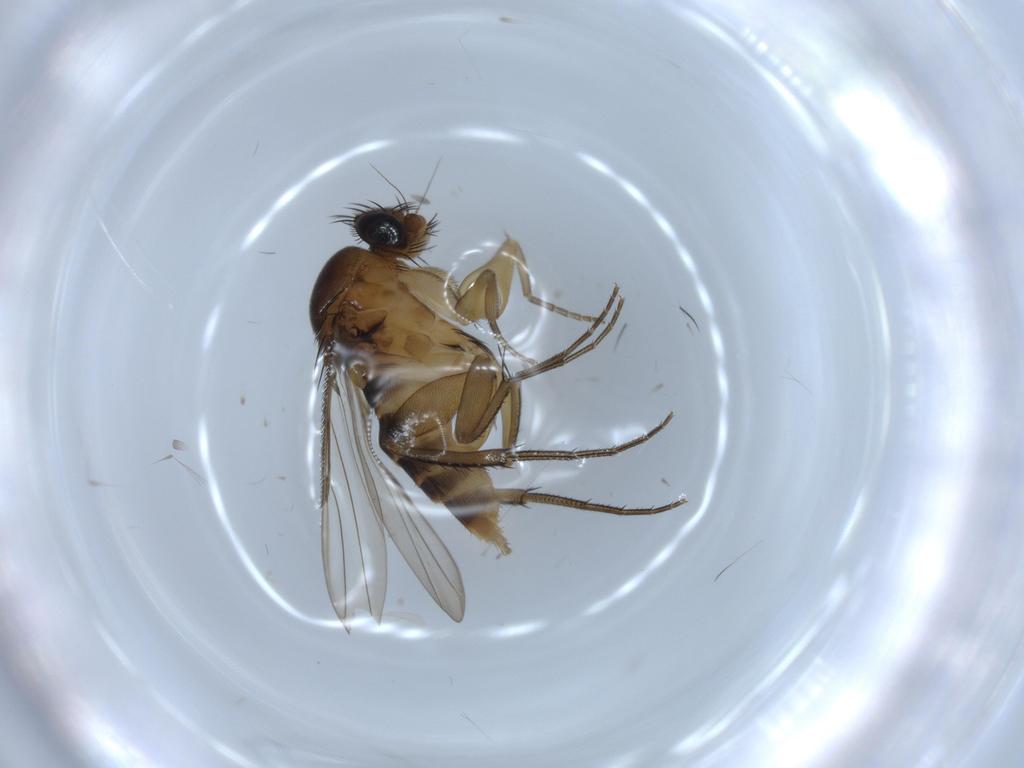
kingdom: Animalia
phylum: Arthropoda
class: Insecta
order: Diptera
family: Phoridae
